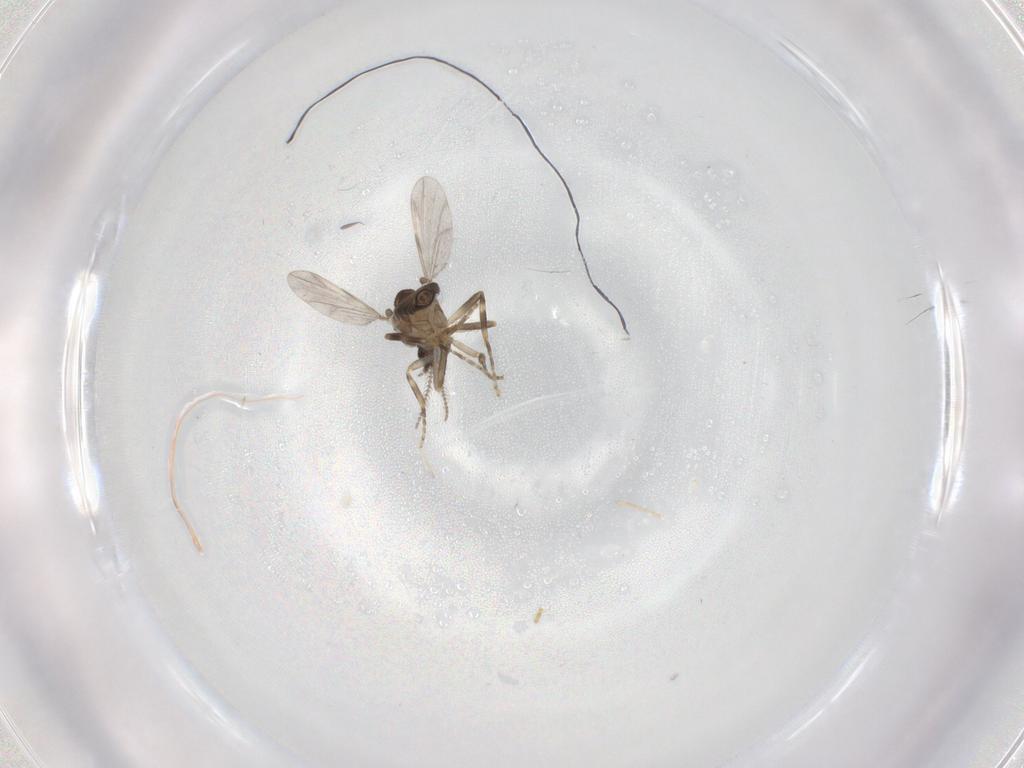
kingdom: Animalia
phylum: Arthropoda
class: Insecta
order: Diptera
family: Ceratopogonidae
